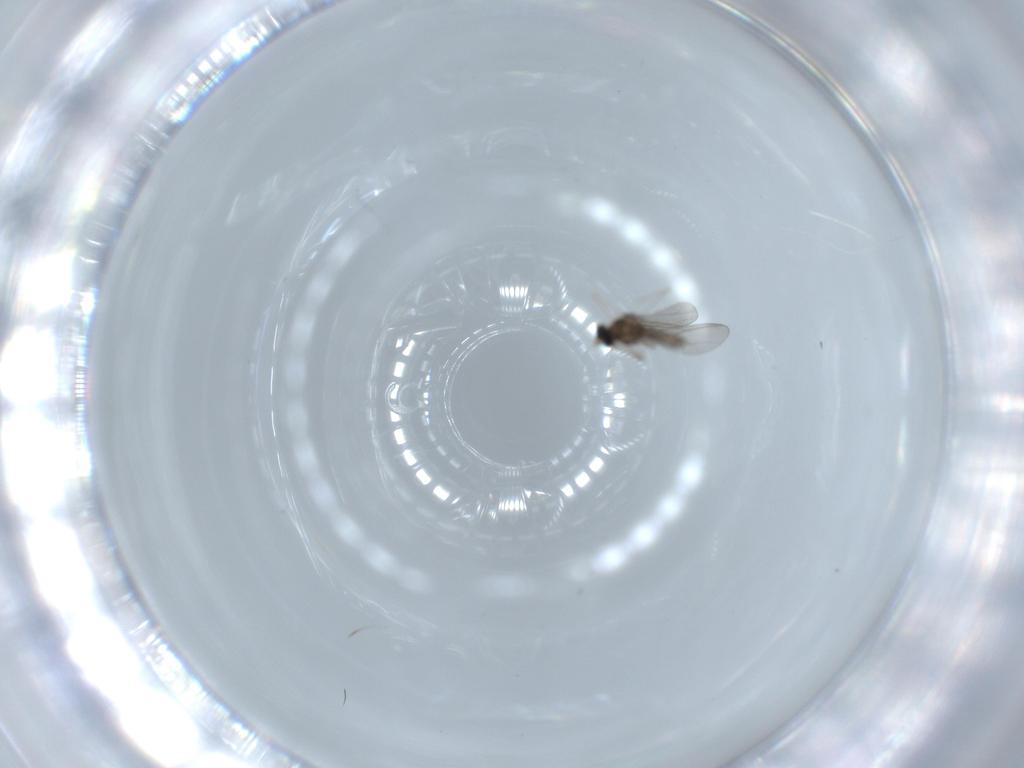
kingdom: Animalia
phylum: Arthropoda
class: Insecta
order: Diptera
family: Cecidomyiidae
